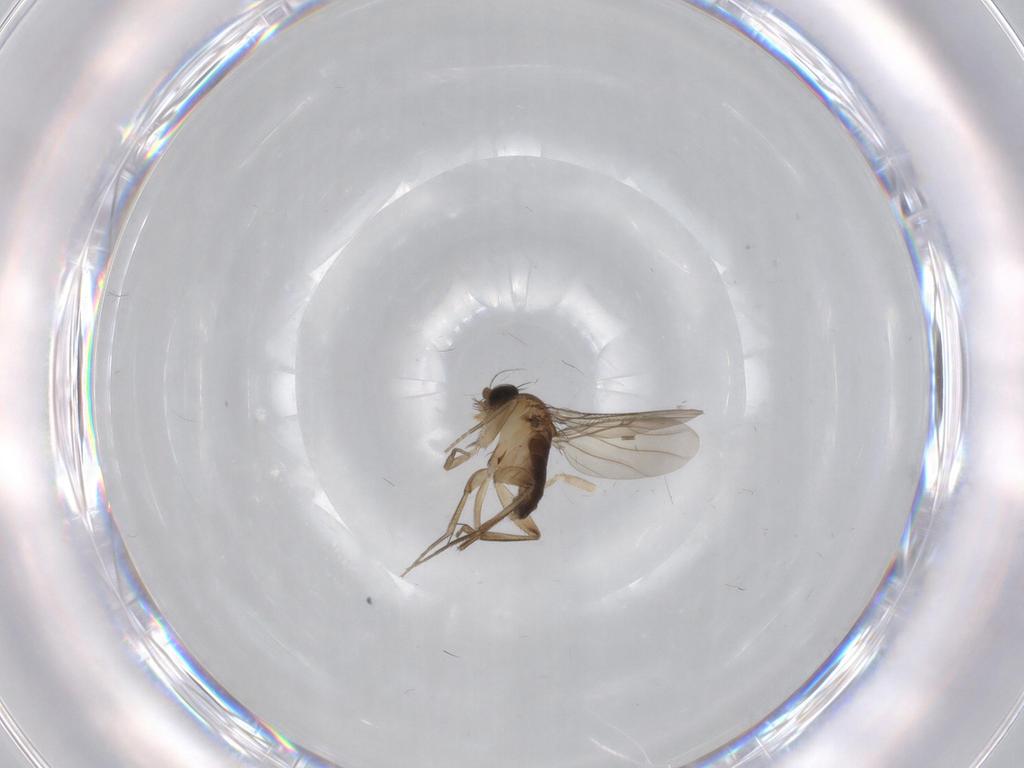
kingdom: Animalia
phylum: Arthropoda
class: Insecta
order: Diptera
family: Phoridae
